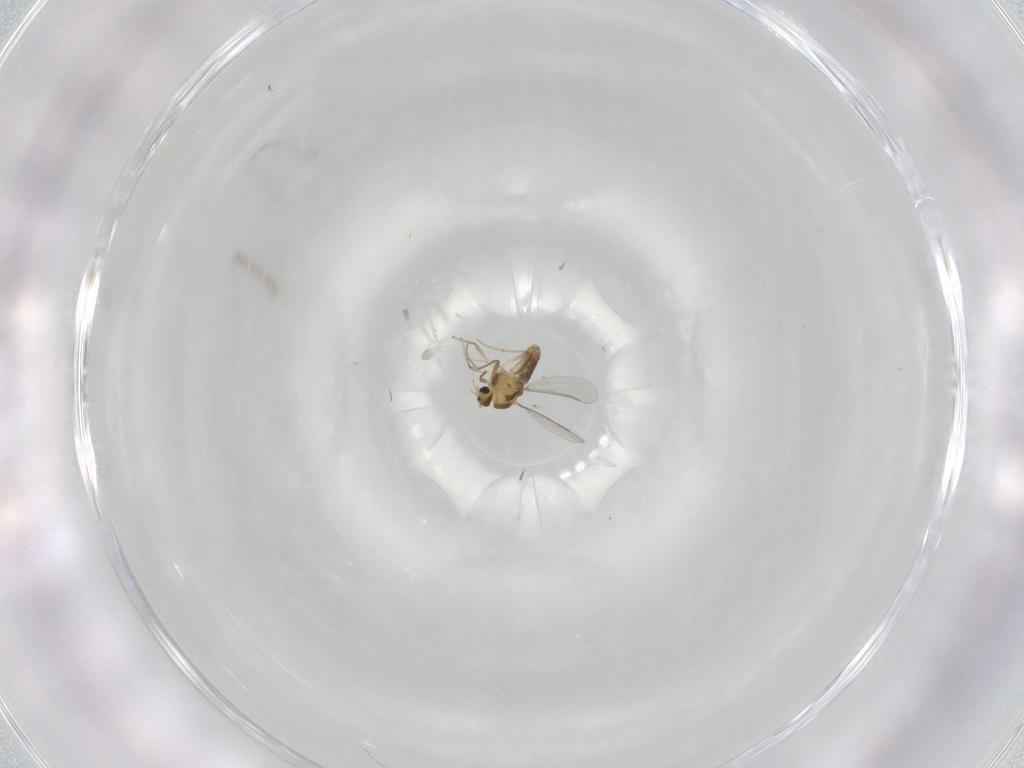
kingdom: Animalia
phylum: Arthropoda
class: Insecta
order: Diptera
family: Chironomidae
